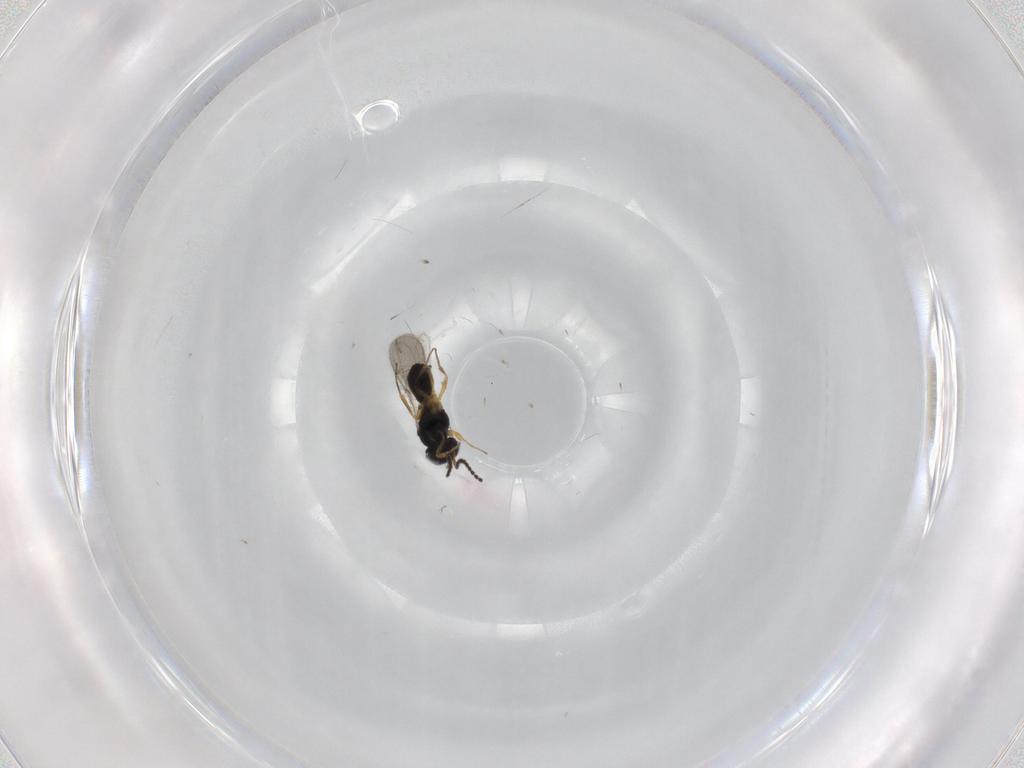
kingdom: Animalia
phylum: Arthropoda
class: Insecta
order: Hymenoptera
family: Scelionidae
